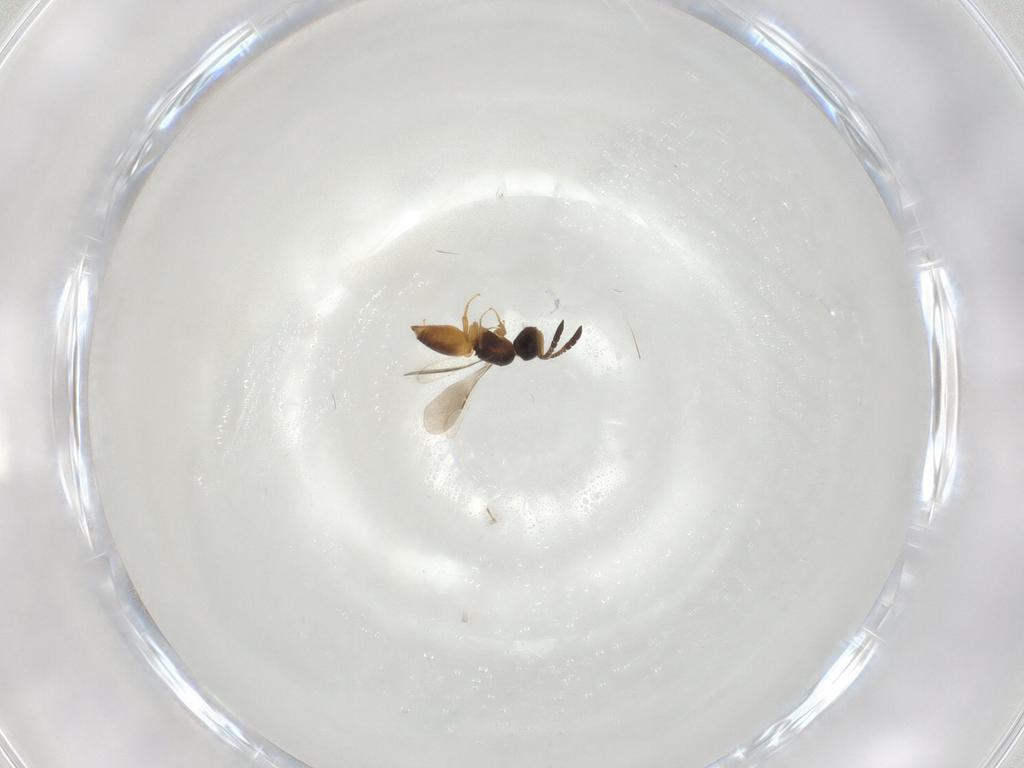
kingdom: Animalia
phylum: Arthropoda
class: Insecta
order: Hymenoptera
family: Ceraphronidae
